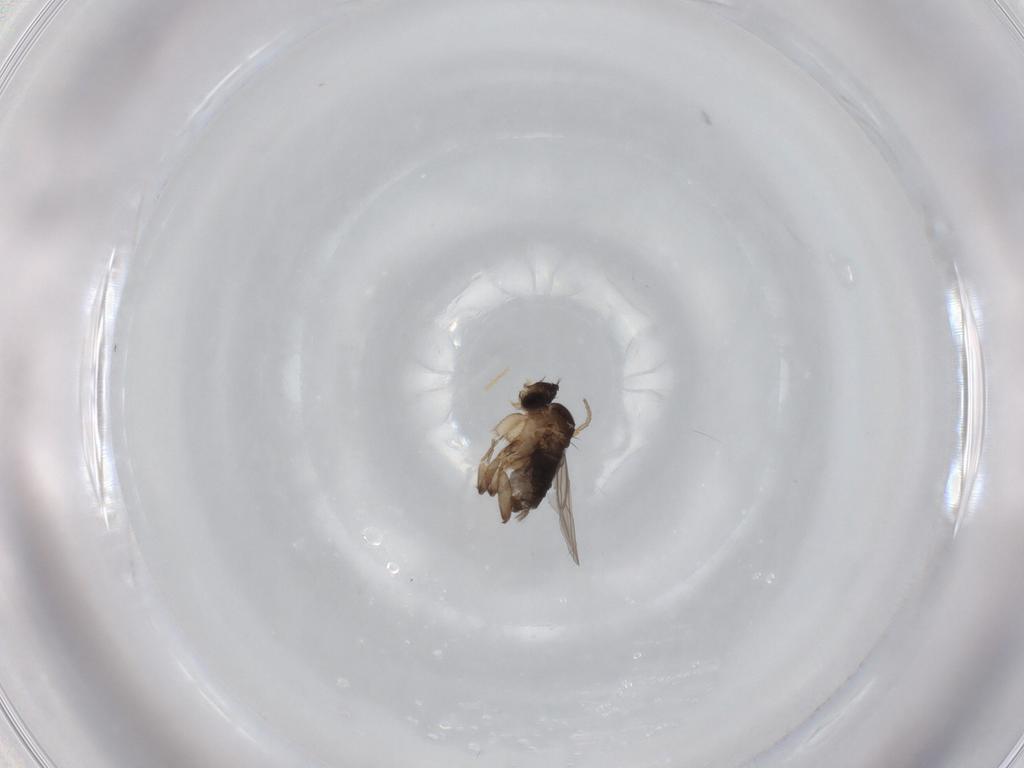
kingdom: Animalia
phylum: Arthropoda
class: Insecta
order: Diptera
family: Phoridae
